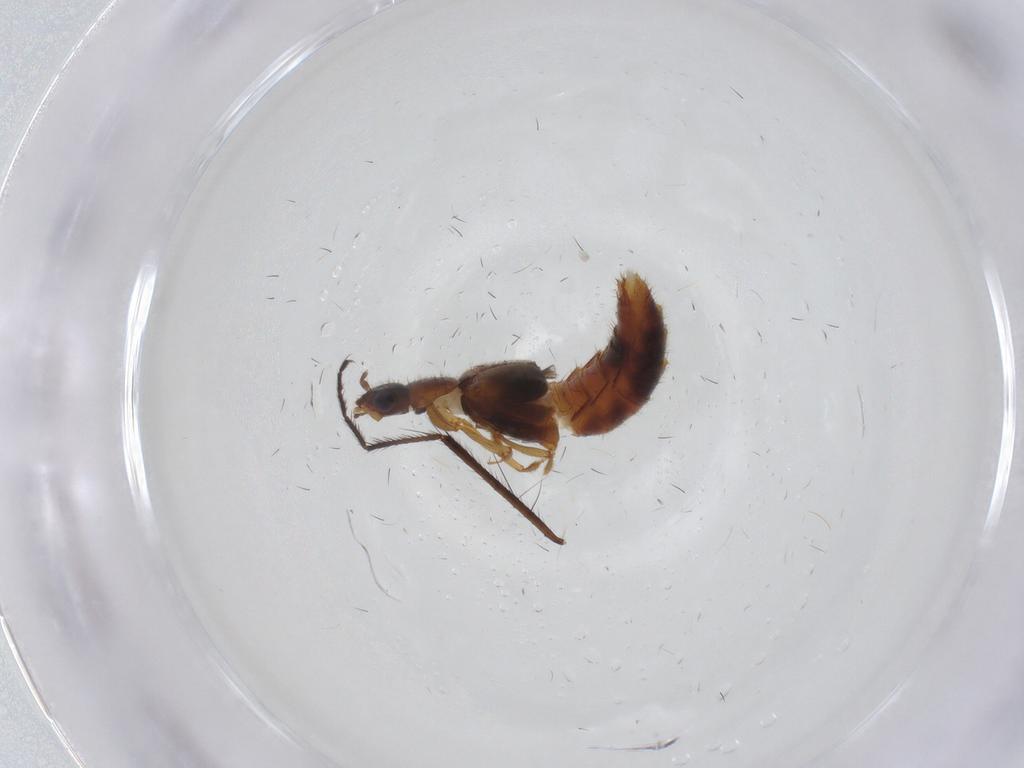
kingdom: Animalia
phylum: Arthropoda
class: Insecta
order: Coleoptera
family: Staphylinidae
